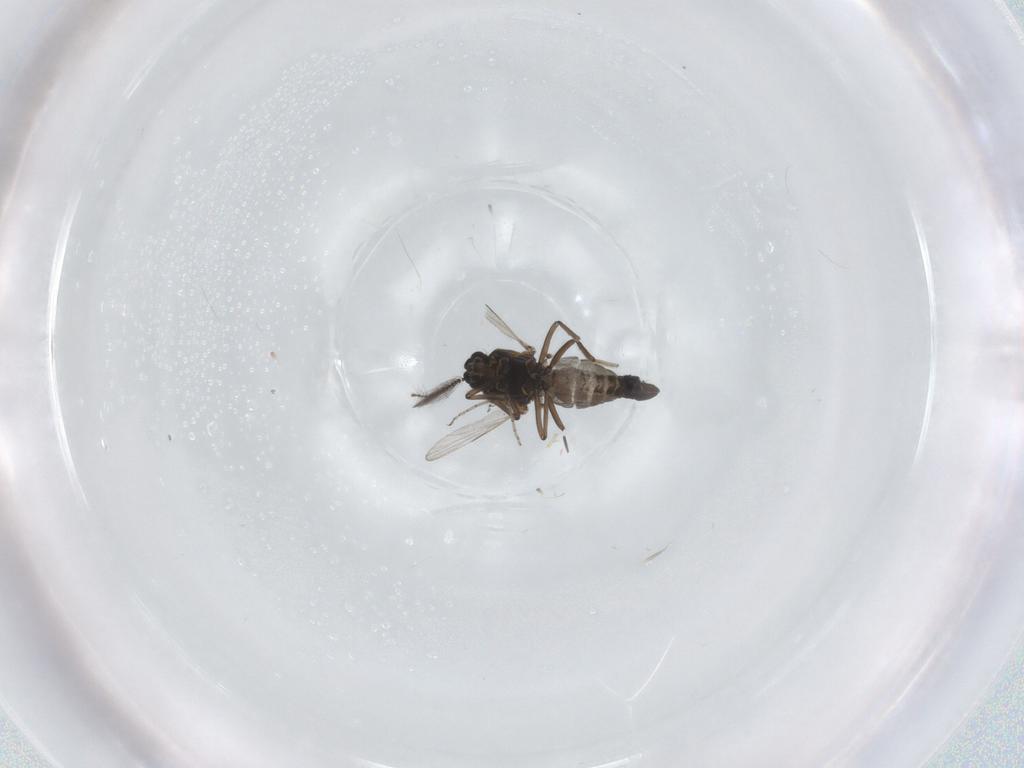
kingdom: Animalia
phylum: Arthropoda
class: Insecta
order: Diptera
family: Ceratopogonidae
